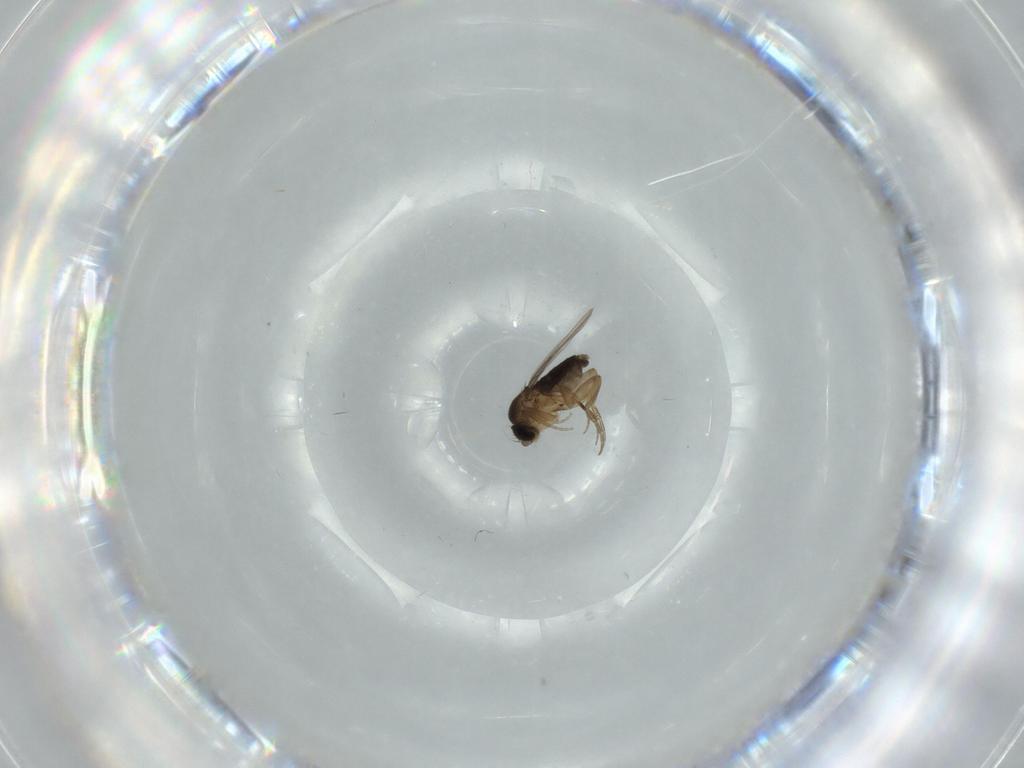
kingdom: Animalia
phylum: Arthropoda
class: Insecta
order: Diptera
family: Phoridae
